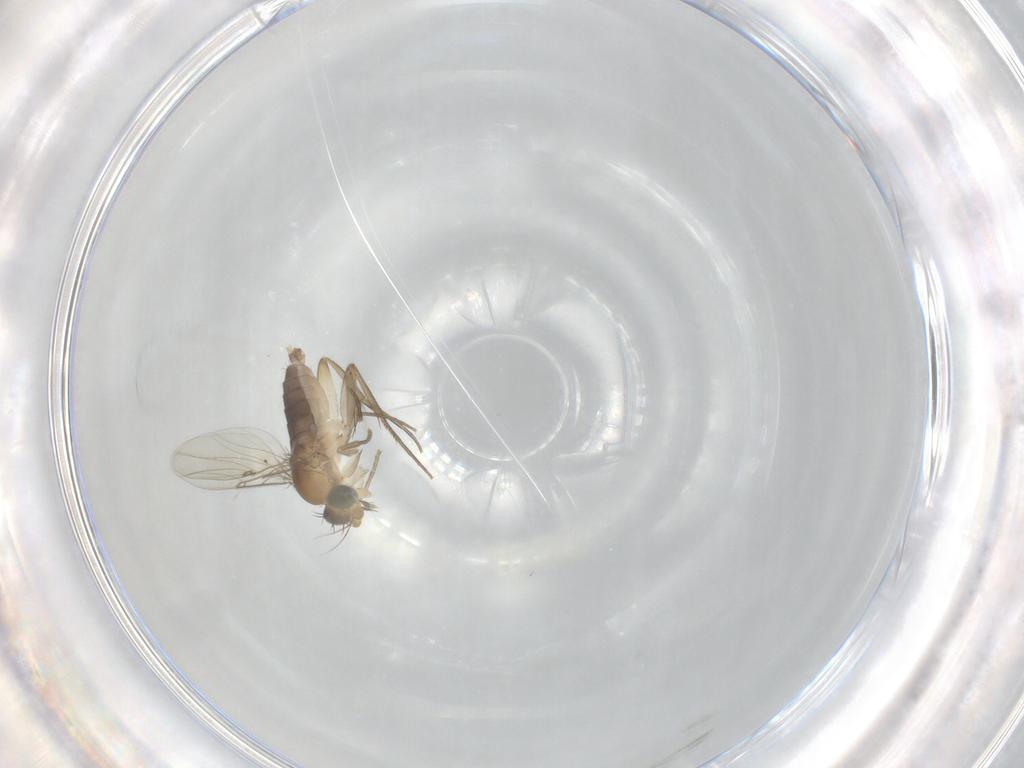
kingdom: Animalia
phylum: Arthropoda
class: Insecta
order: Diptera
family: Phoridae
